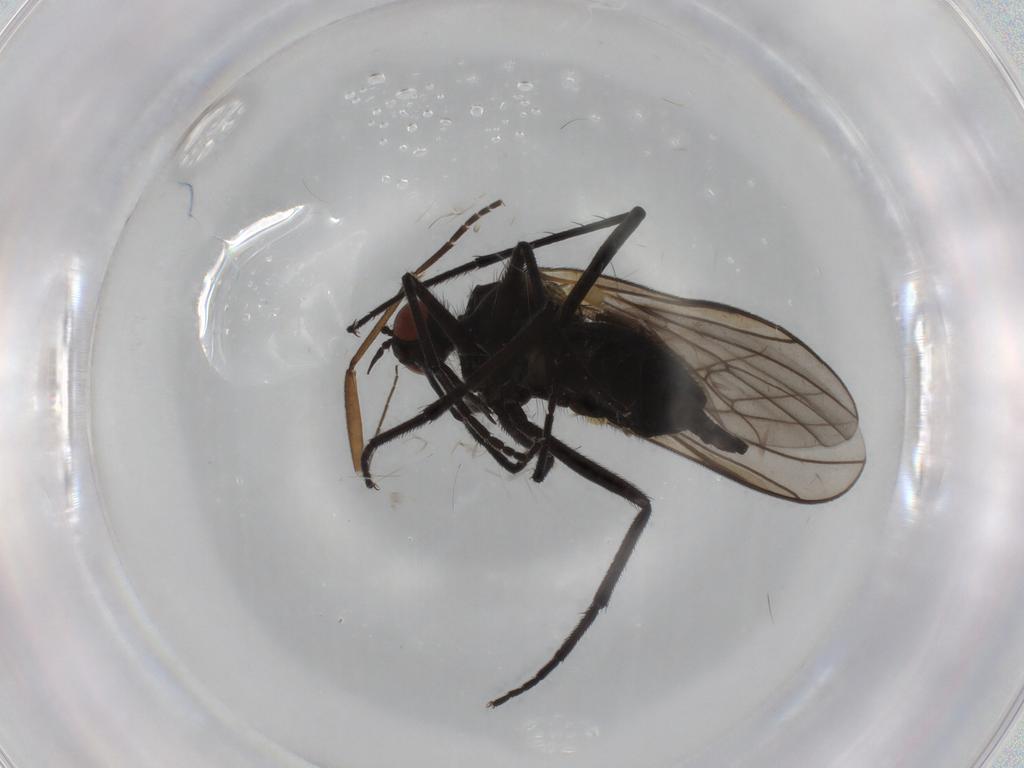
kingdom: Animalia
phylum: Arthropoda
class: Insecta
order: Diptera
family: Empididae
